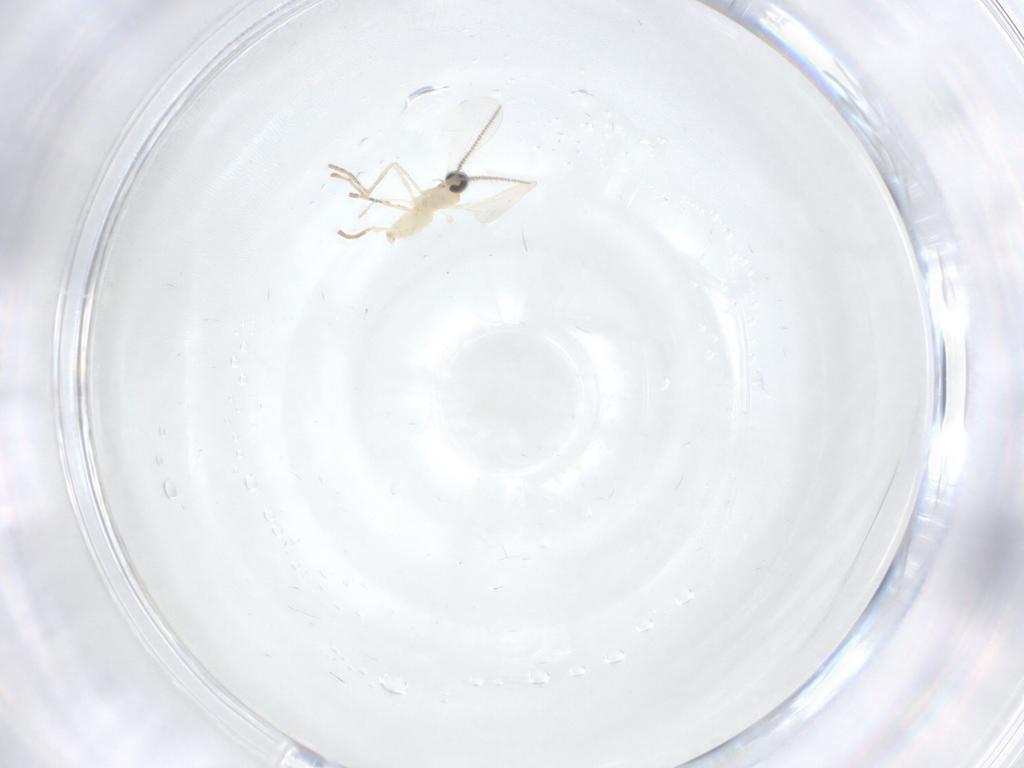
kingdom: Animalia
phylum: Arthropoda
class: Insecta
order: Diptera
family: Cecidomyiidae
